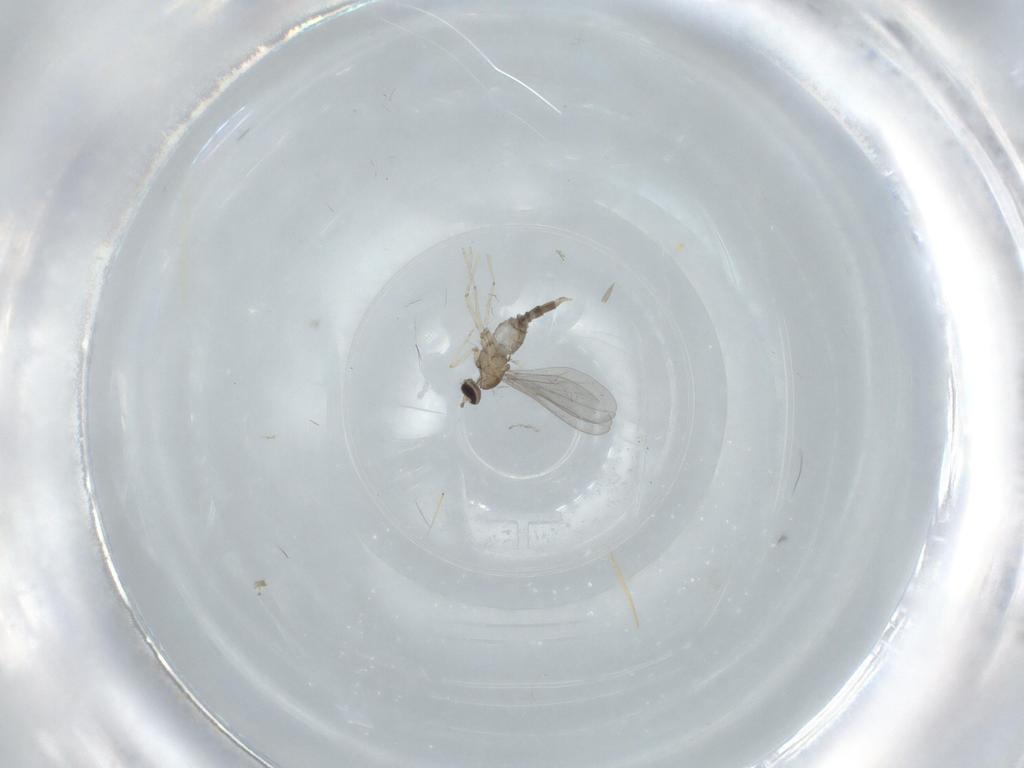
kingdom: Animalia
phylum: Arthropoda
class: Insecta
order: Diptera
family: Cecidomyiidae
